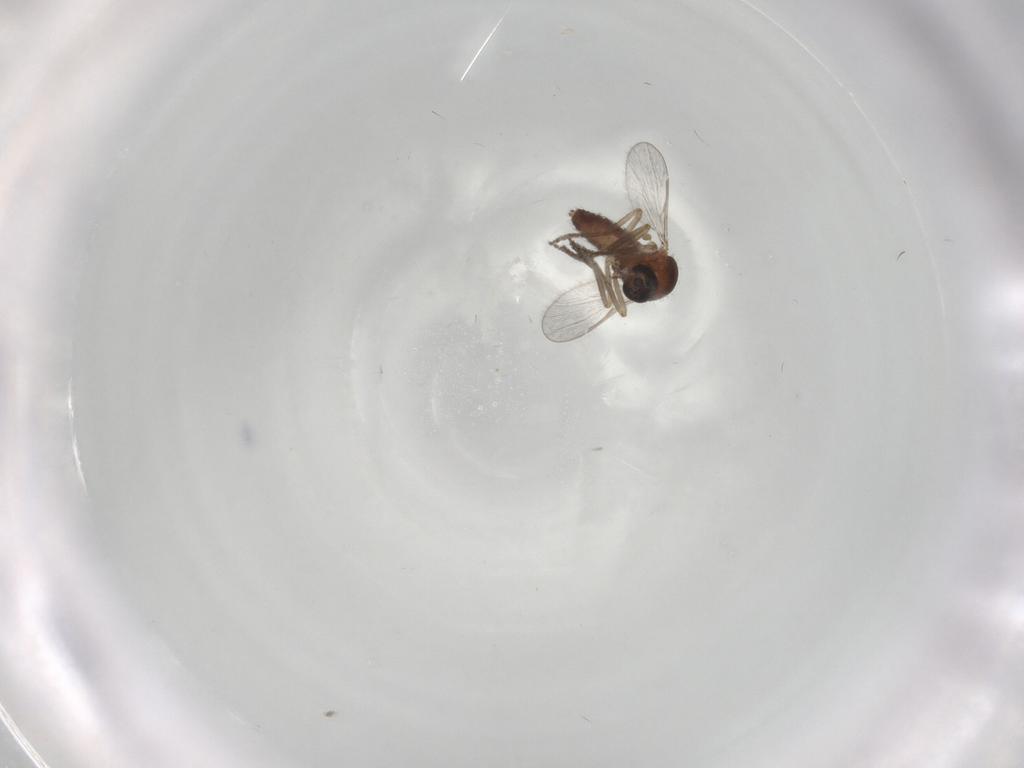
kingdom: Animalia
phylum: Arthropoda
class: Insecta
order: Diptera
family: Ceratopogonidae
